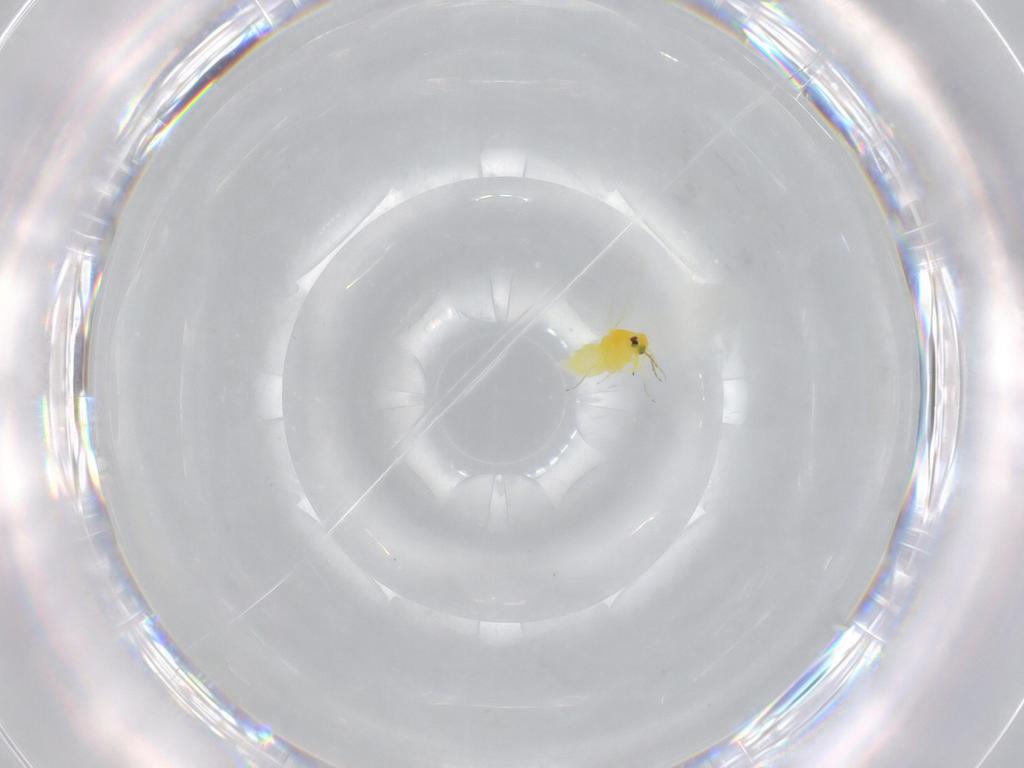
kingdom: Animalia
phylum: Arthropoda
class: Insecta
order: Hemiptera
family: Aleyrodidae
